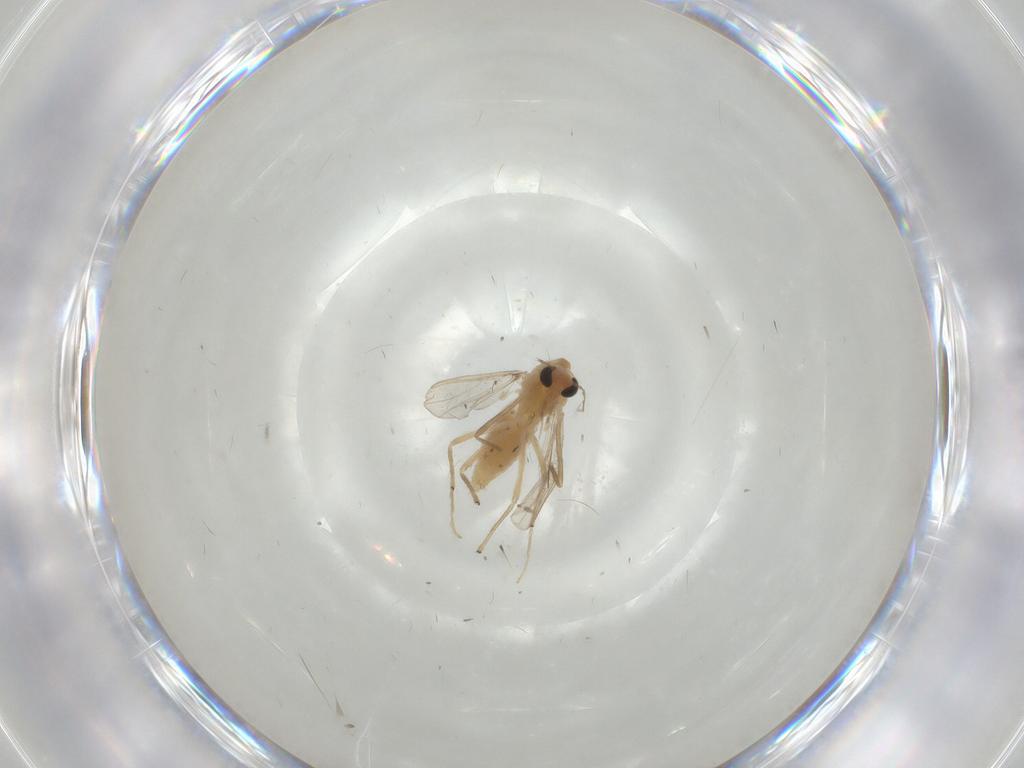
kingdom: Animalia
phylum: Arthropoda
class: Insecta
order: Diptera
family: Chironomidae
